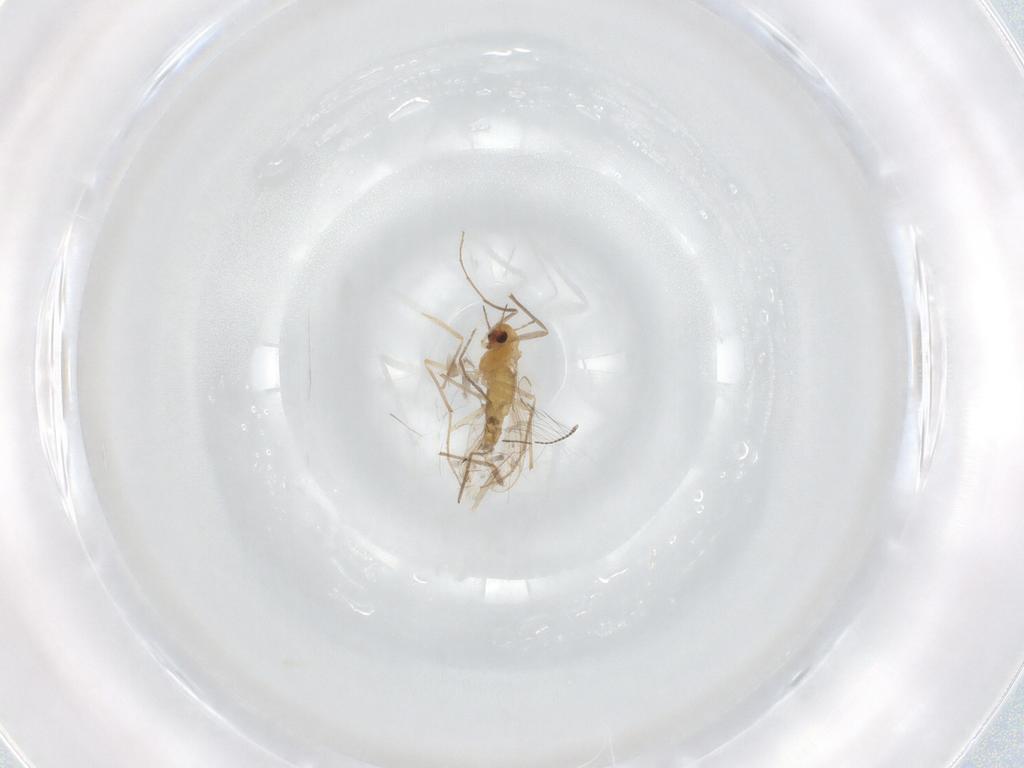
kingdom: Animalia
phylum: Arthropoda
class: Insecta
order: Diptera
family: Chironomidae
